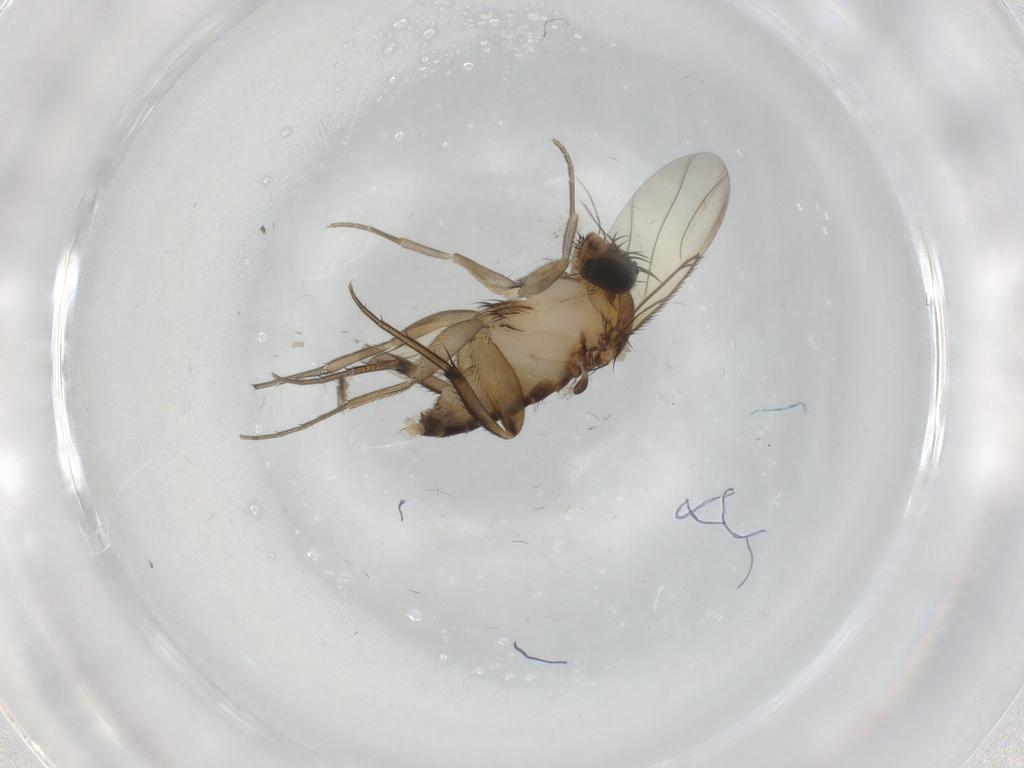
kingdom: Animalia
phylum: Arthropoda
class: Insecta
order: Diptera
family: Phoridae
